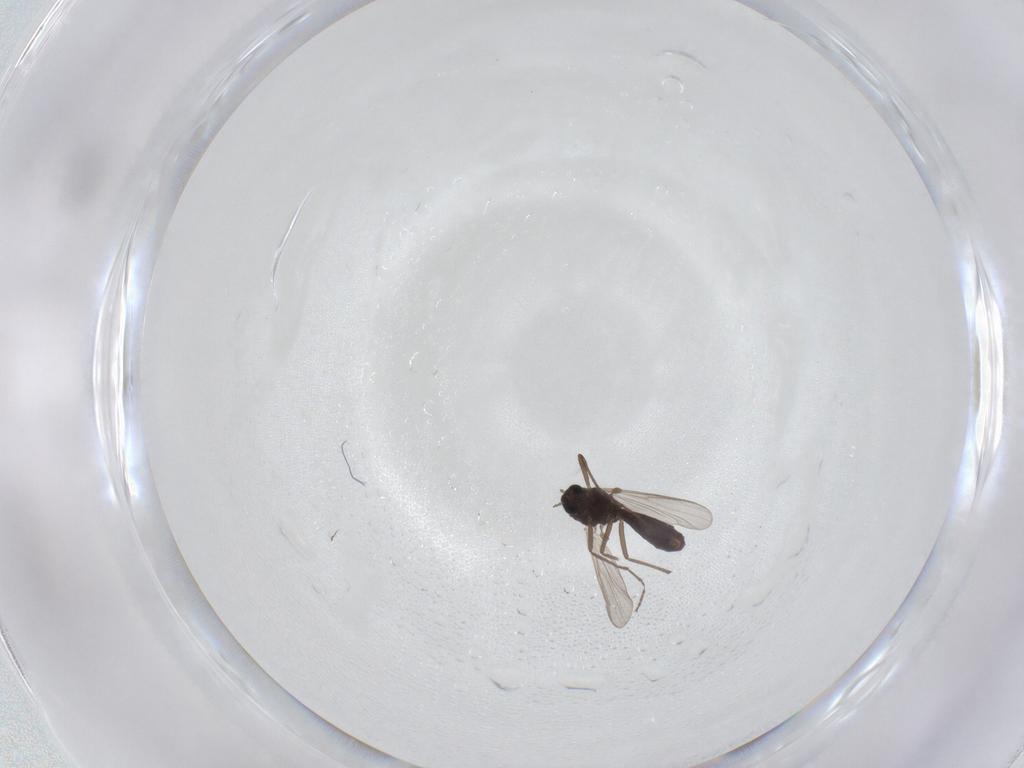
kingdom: Animalia
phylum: Arthropoda
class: Insecta
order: Diptera
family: Chironomidae
